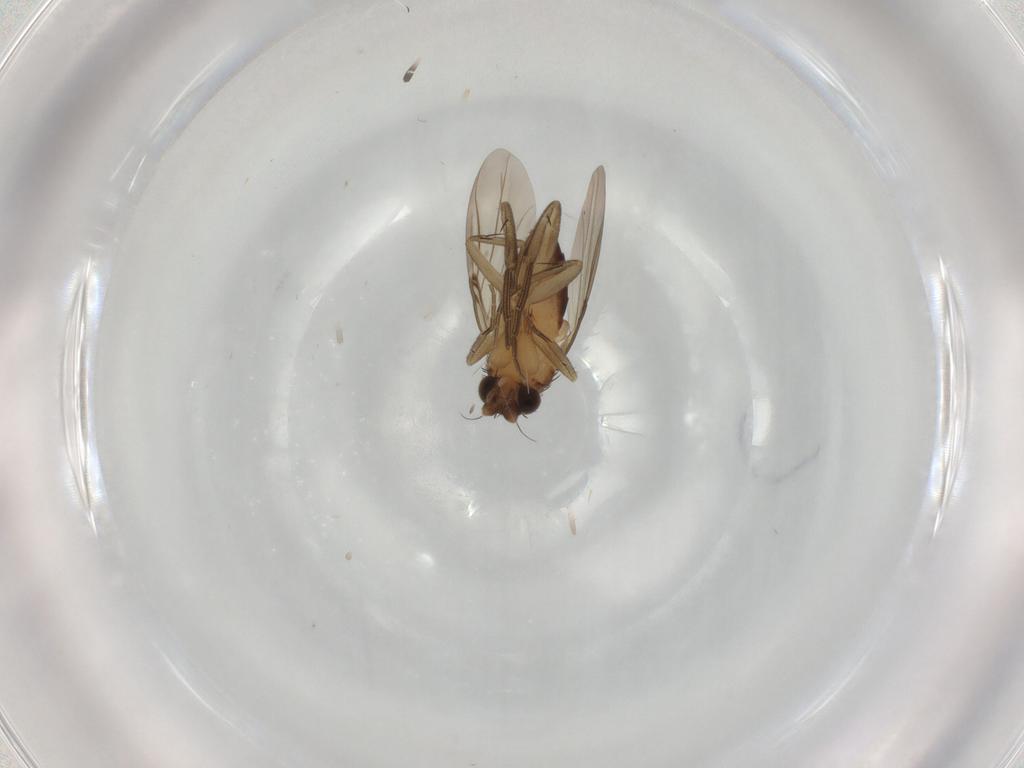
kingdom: Animalia
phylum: Arthropoda
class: Insecta
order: Diptera
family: Phoridae
